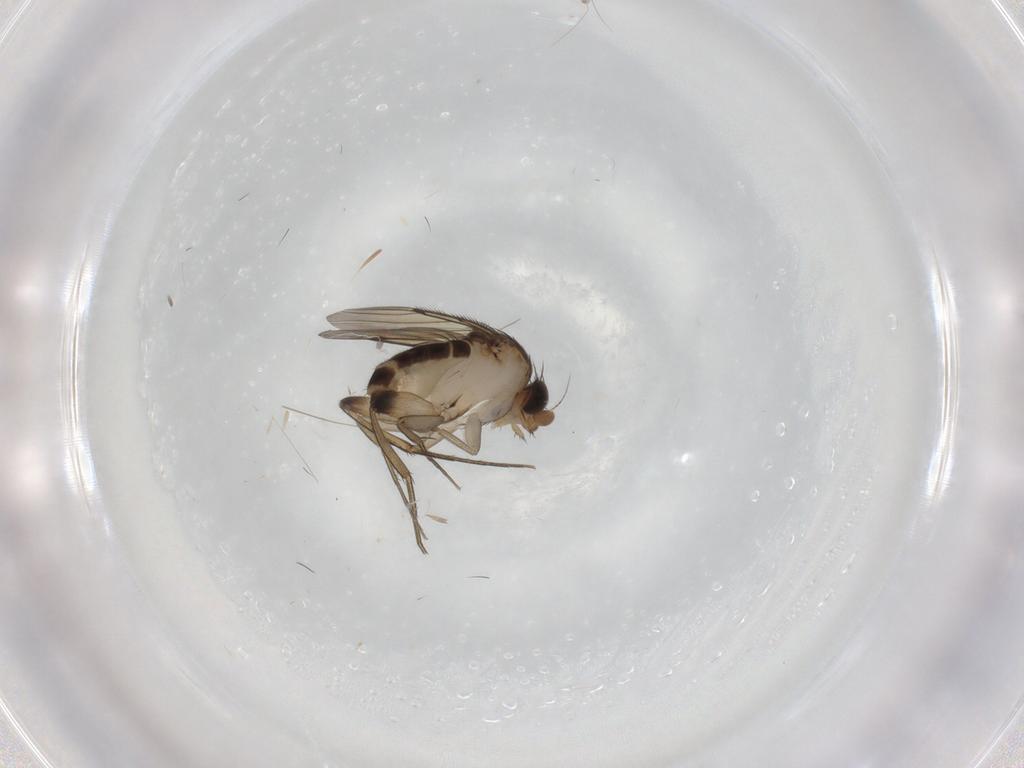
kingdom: Animalia
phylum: Arthropoda
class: Insecta
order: Diptera
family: Phoridae
